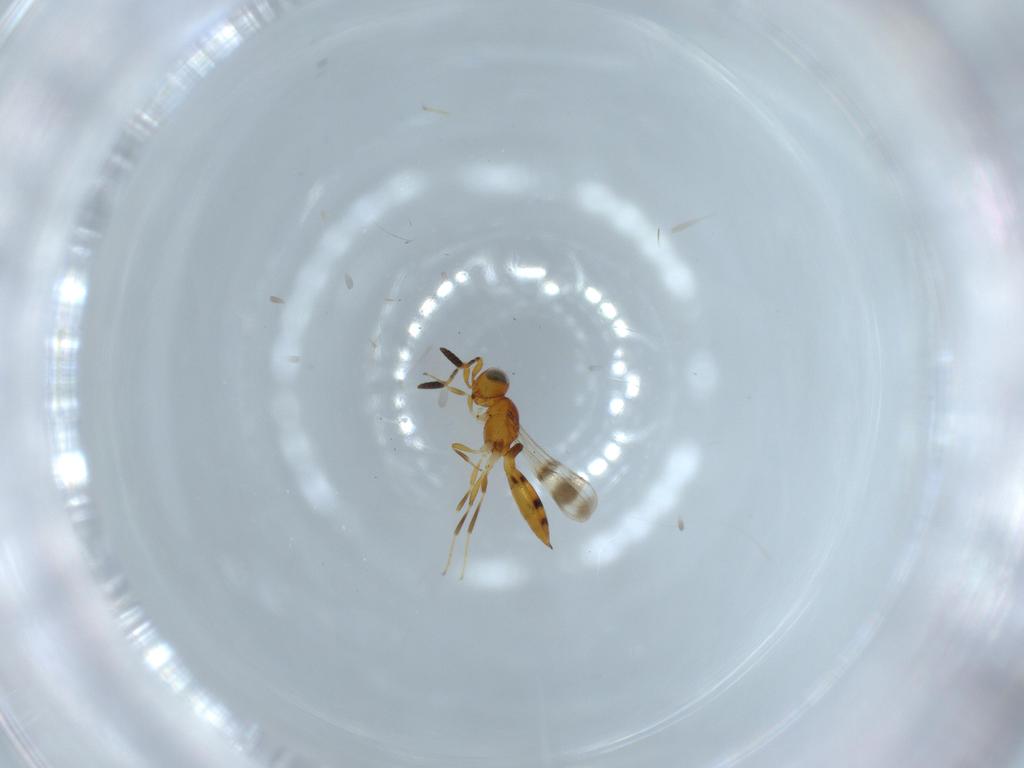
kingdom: Animalia
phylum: Arthropoda
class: Insecta
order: Hymenoptera
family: Scelionidae
